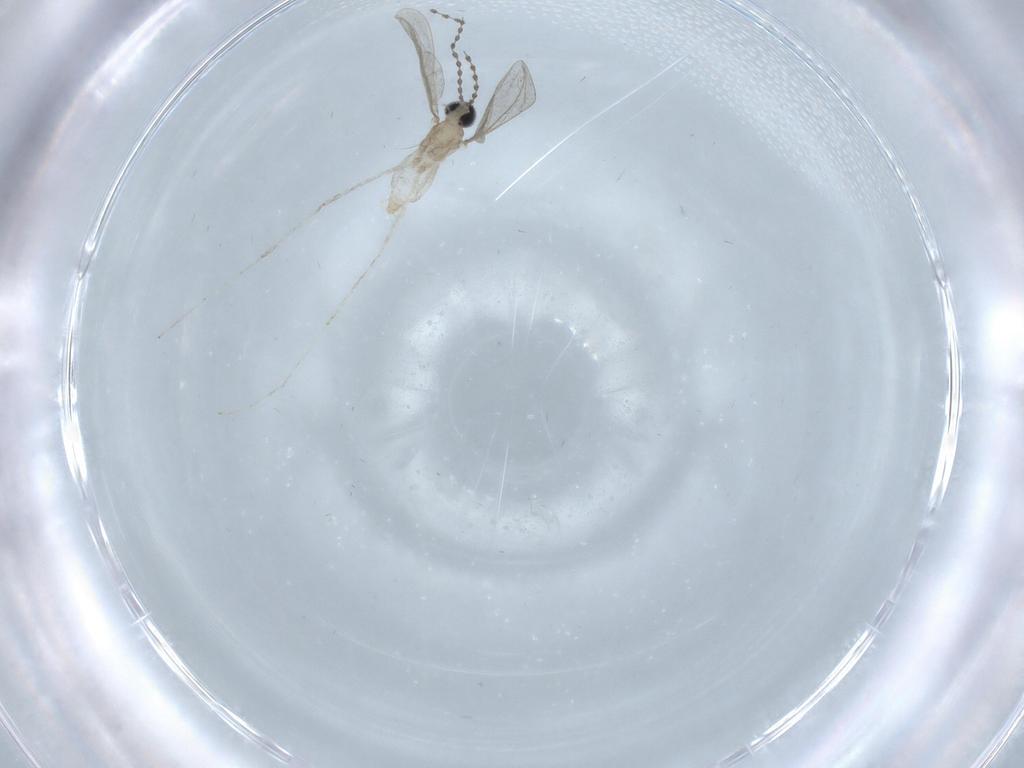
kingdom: Animalia
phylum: Arthropoda
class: Insecta
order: Diptera
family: Cecidomyiidae
